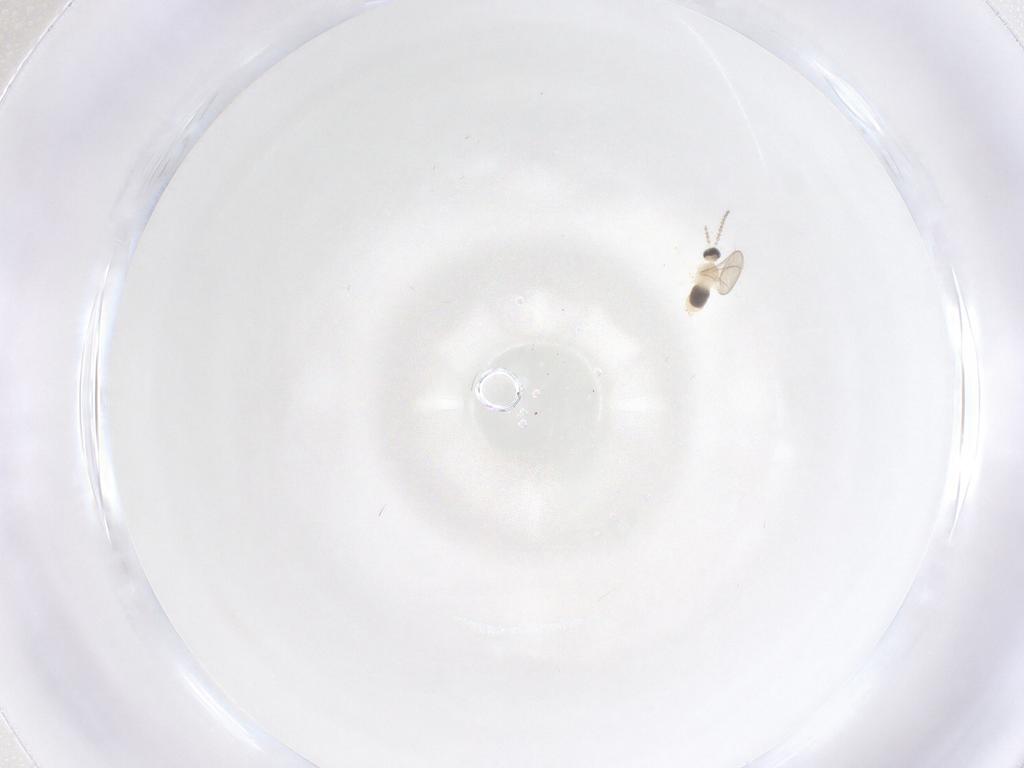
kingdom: Animalia
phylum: Arthropoda
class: Insecta
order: Diptera
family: Cecidomyiidae
